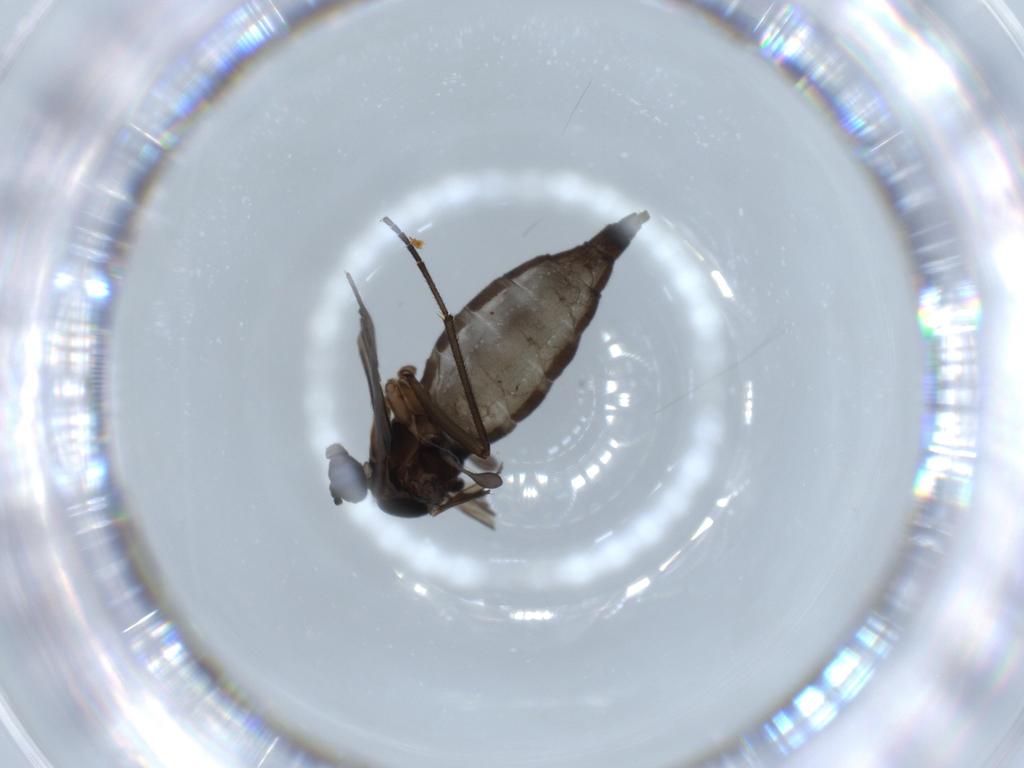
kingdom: Animalia
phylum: Arthropoda
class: Insecta
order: Diptera
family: Sciaridae
